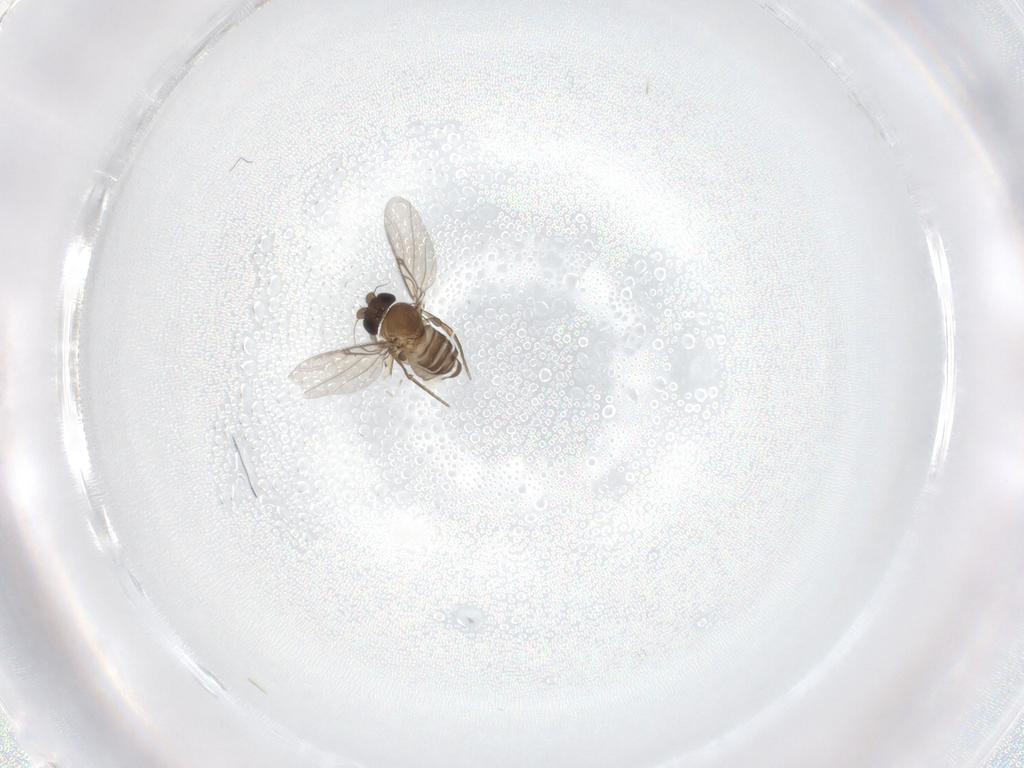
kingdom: Animalia
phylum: Arthropoda
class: Insecta
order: Diptera
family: Phoridae
